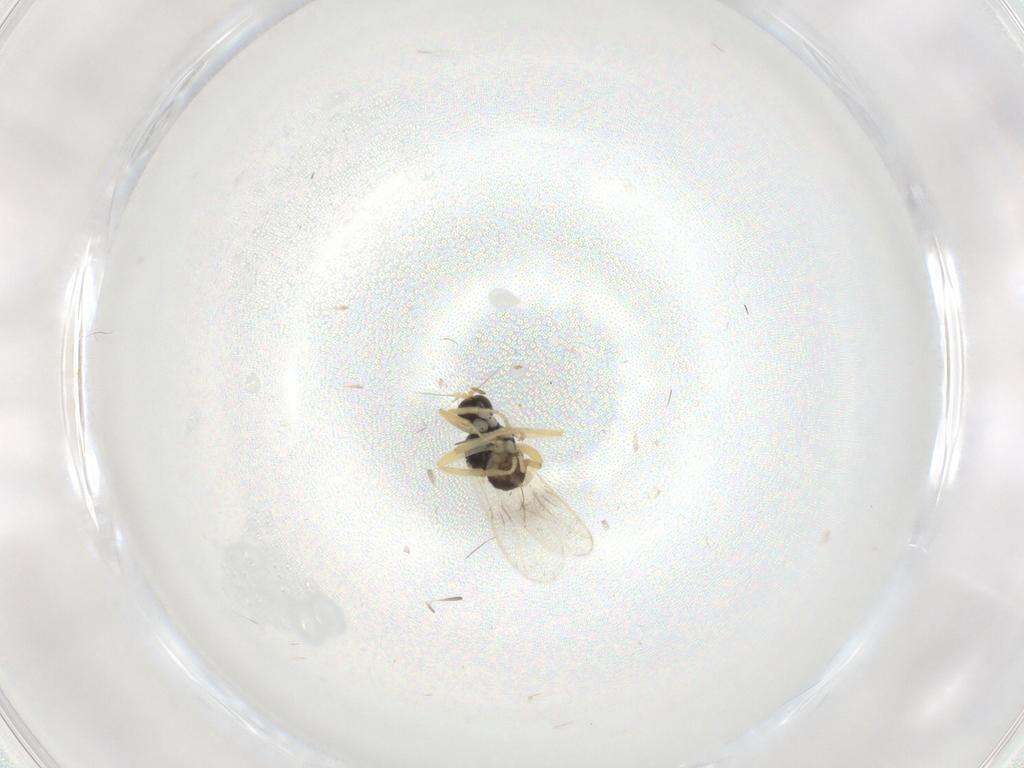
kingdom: Animalia
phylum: Arthropoda
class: Insecta
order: Diptera
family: Hybotidae
